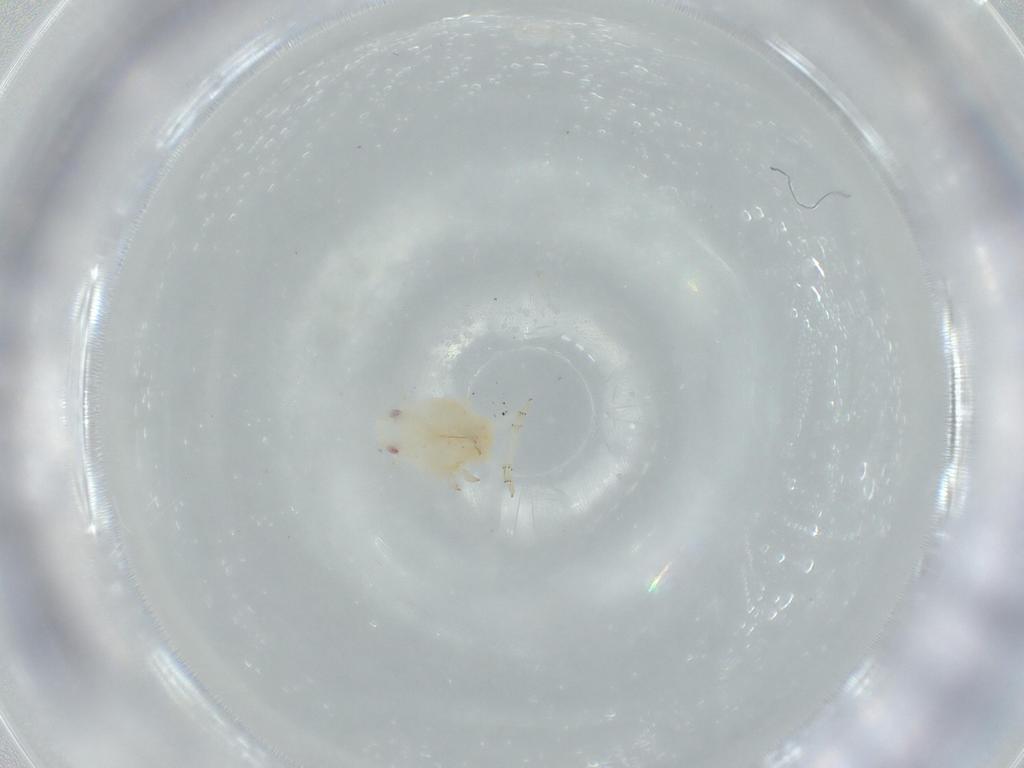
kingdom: Animalia
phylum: Arthropoda
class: Insecta
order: Hemiptera
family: Flatidae
